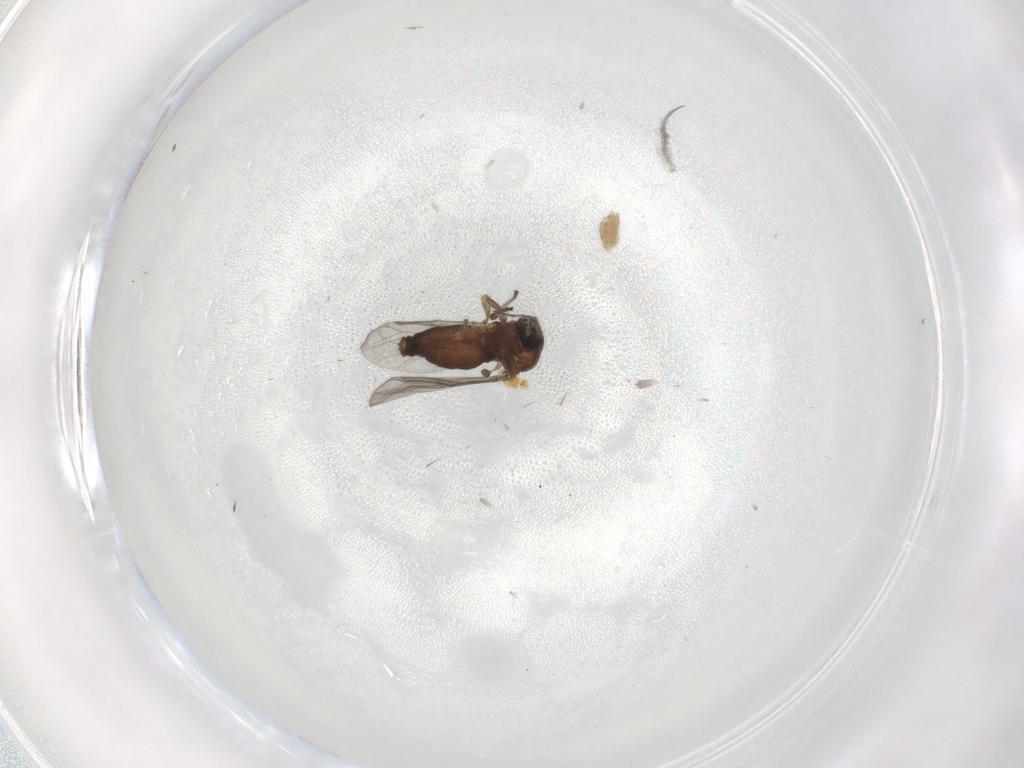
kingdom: Animalia
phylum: Arthropoda
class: Insecta
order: Diptera
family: Ceratopogonidae
